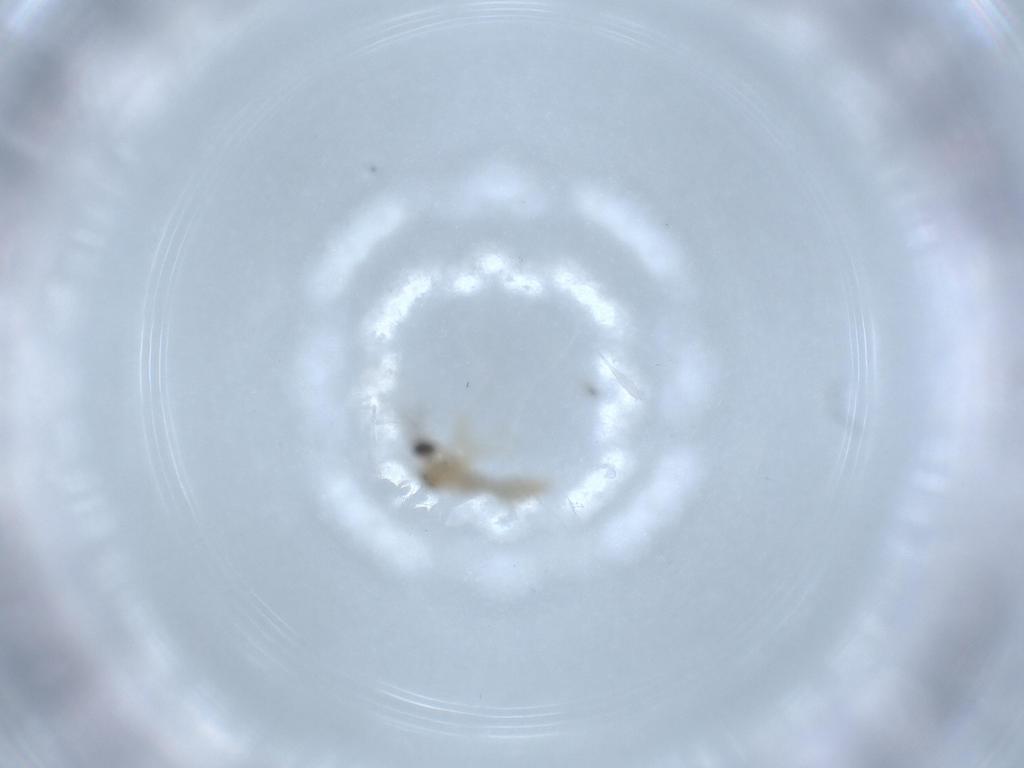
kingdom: Animalia
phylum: Arthropoda
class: Insecta
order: Diptera
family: Cecidomyiidae
